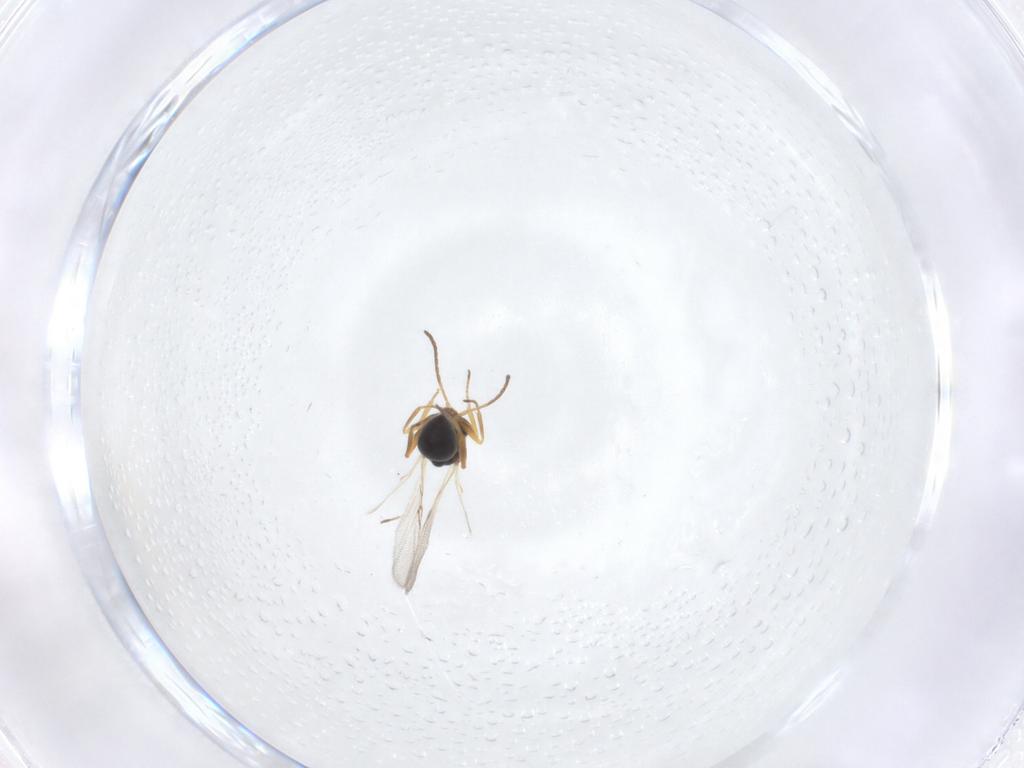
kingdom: Animalia
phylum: Arthropoda
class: Insecta
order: Hymenoptera
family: Figitidae
